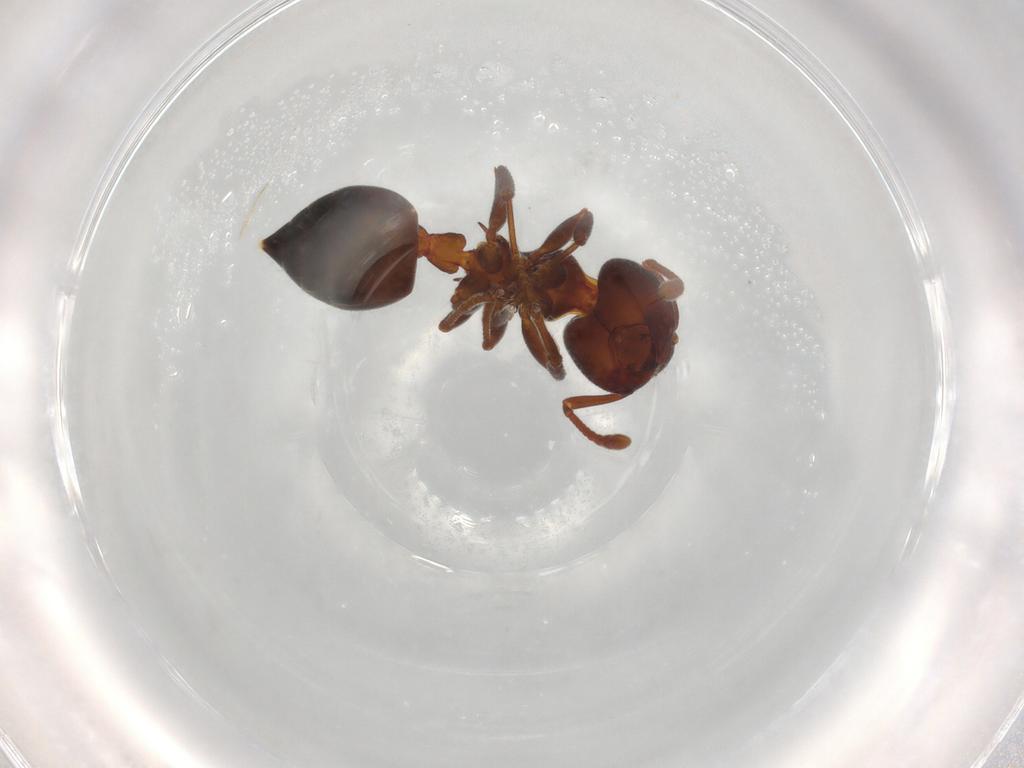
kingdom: Animalia
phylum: Arthropoda
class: Insecta
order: Hymenoptera
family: Formicidae
